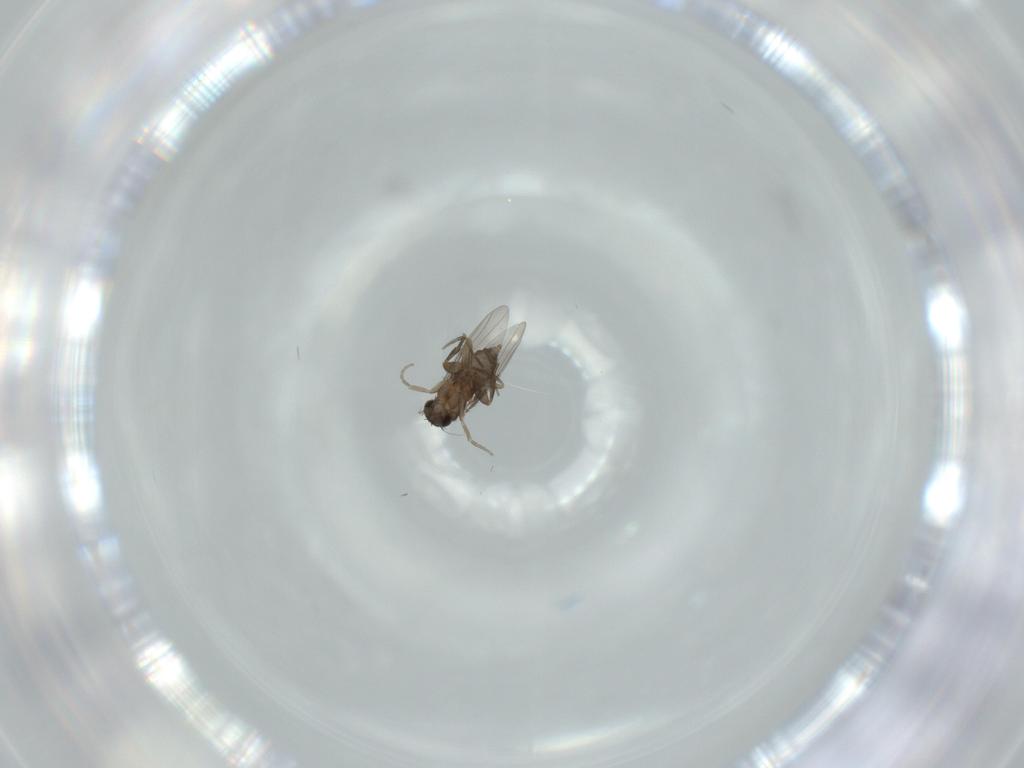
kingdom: Animalia
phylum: Arthropoda
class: Insecta
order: Diptera
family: Phoridae
